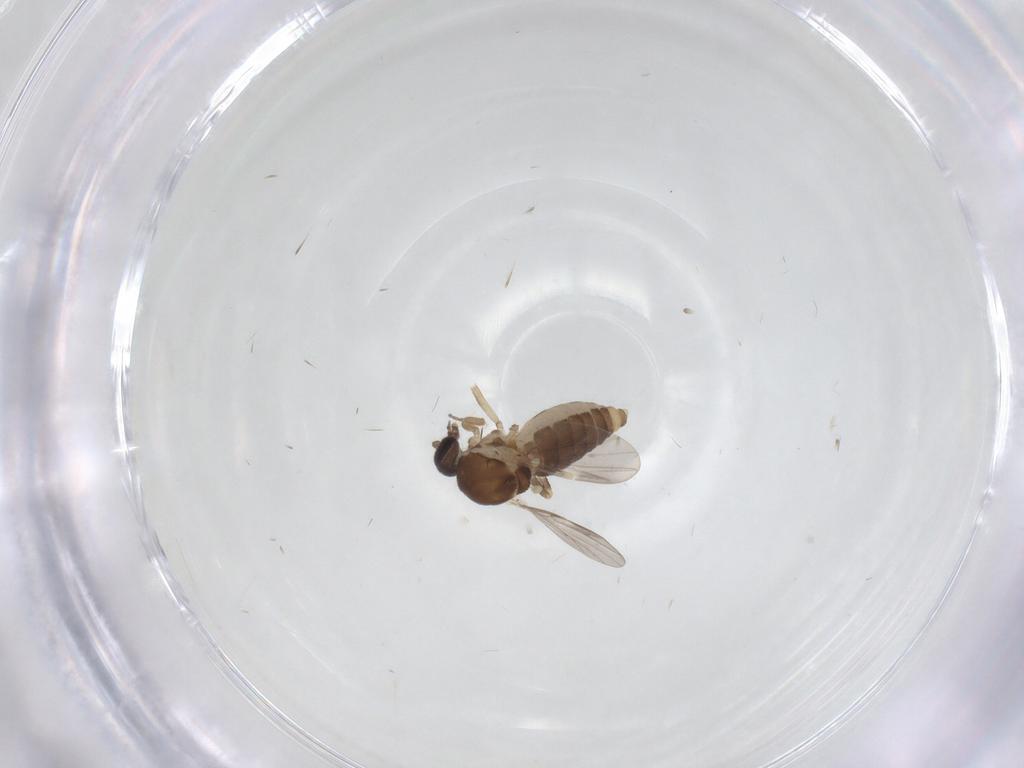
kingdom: Animalia
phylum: Arthropoda
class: Insecta
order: Diptera
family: Ceratopogonidae
